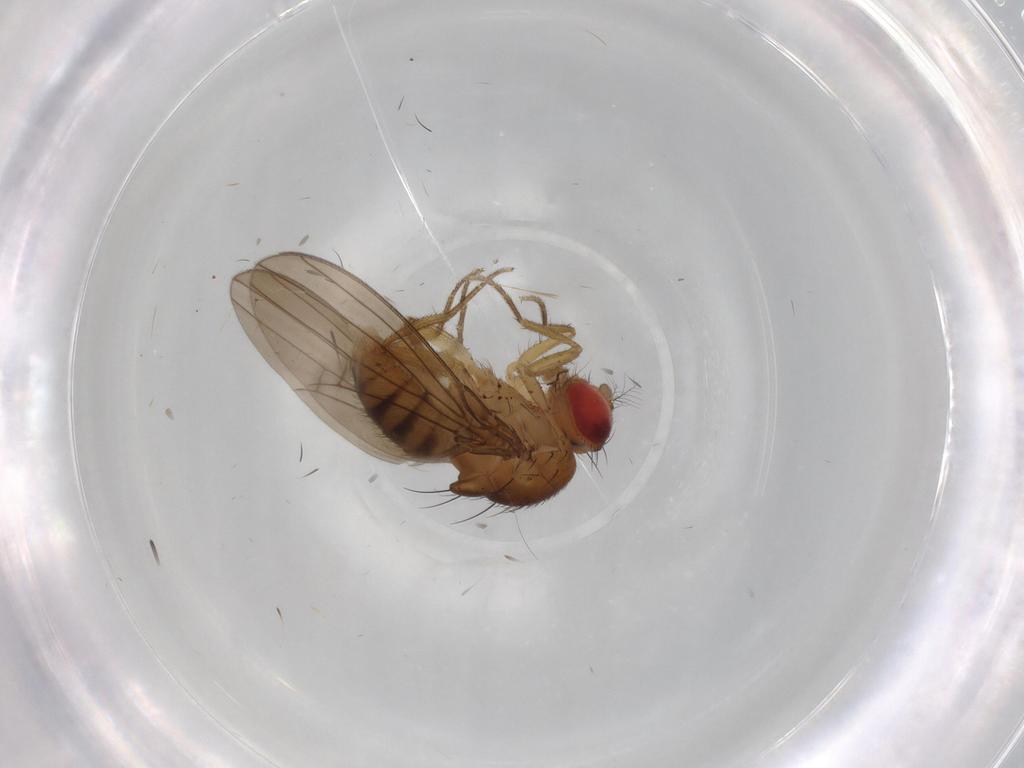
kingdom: Animalia
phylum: Arthropoda
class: Insecta
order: Diptera
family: Drosophilidae
